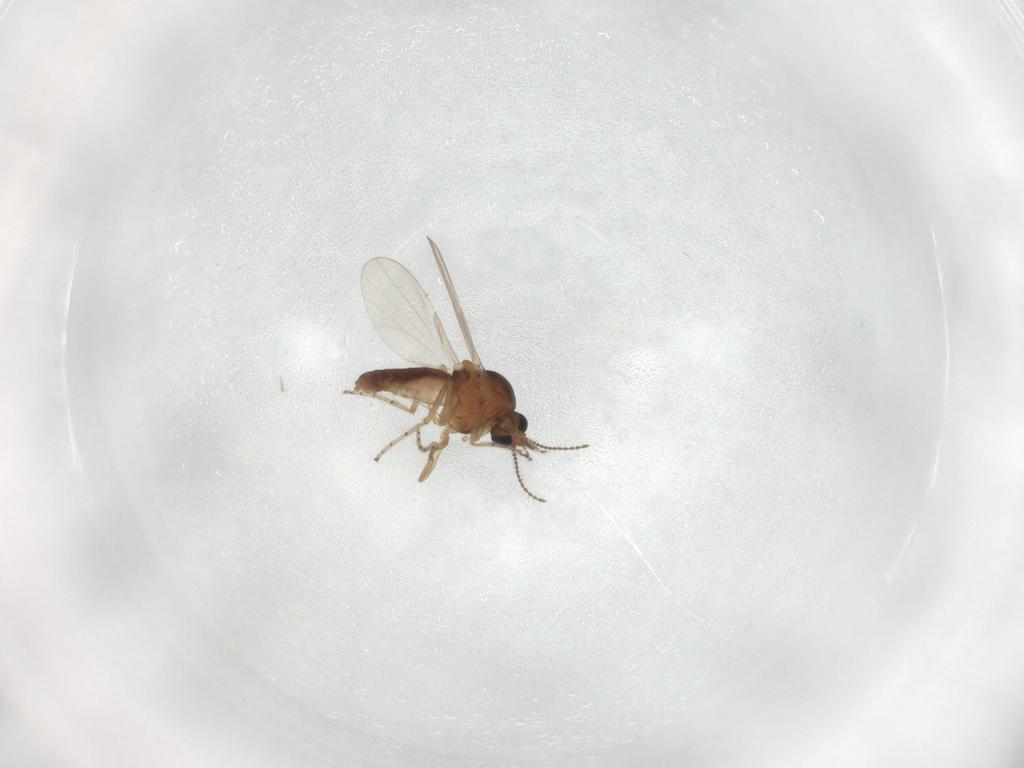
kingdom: Animalia
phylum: Arthropoda
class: Insecta
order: Diptera
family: Ceratopogonidae
